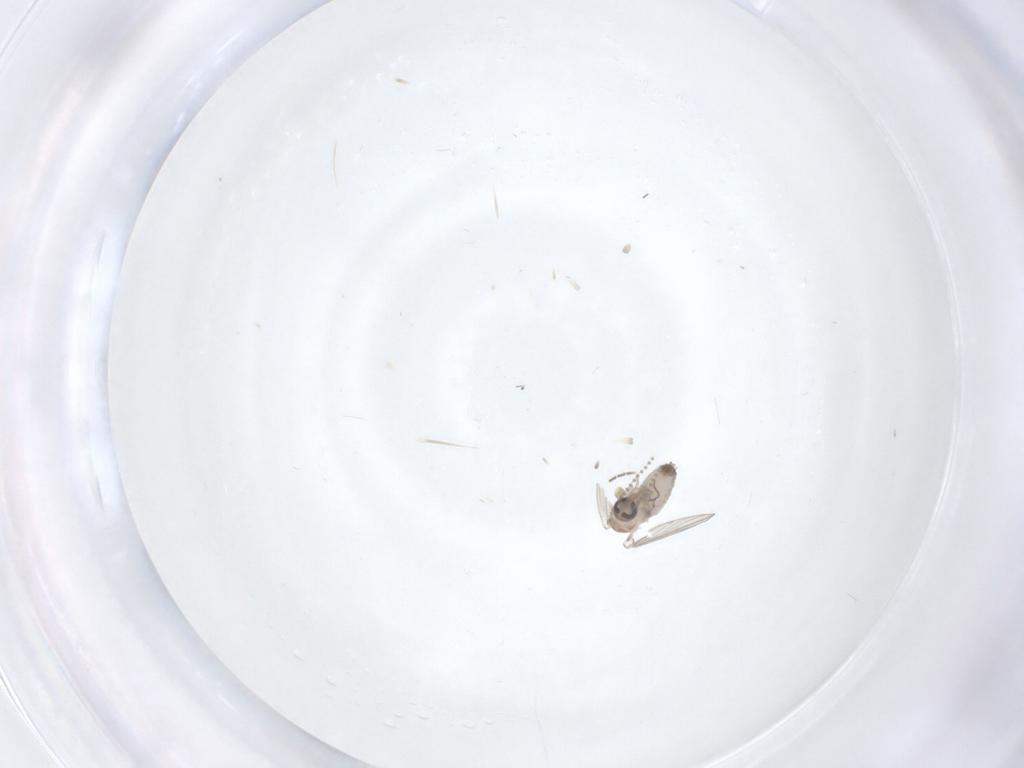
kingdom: Animalia
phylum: Arthropoda
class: Insecta
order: Diptera
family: Psychodidae
